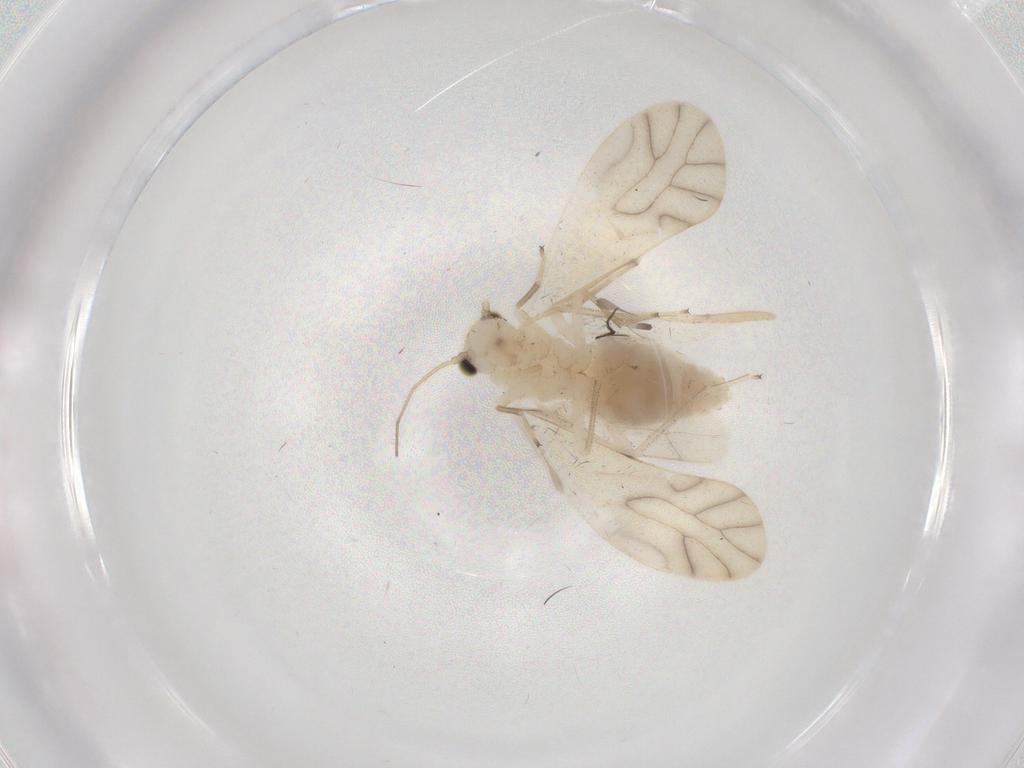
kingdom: Animalia
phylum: Arthropoda
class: Insecta
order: Psocodea
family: Caeciliusidae
